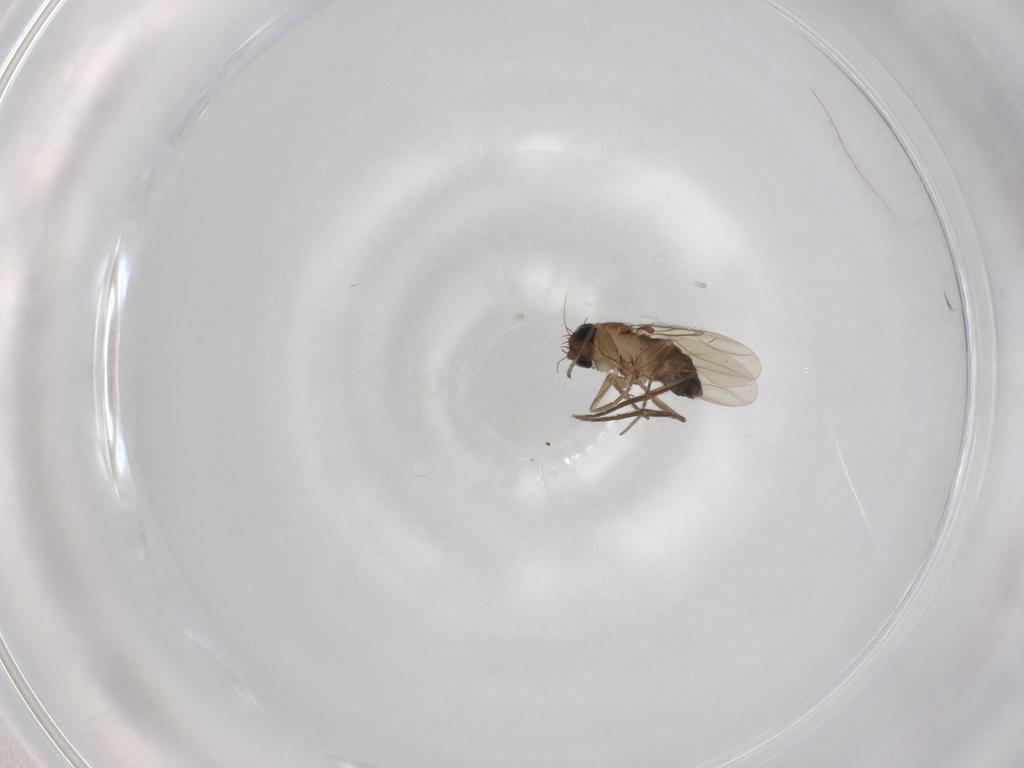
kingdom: Animalia
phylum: Arthropoda
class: Insecta
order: Diptera
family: Phoridae
